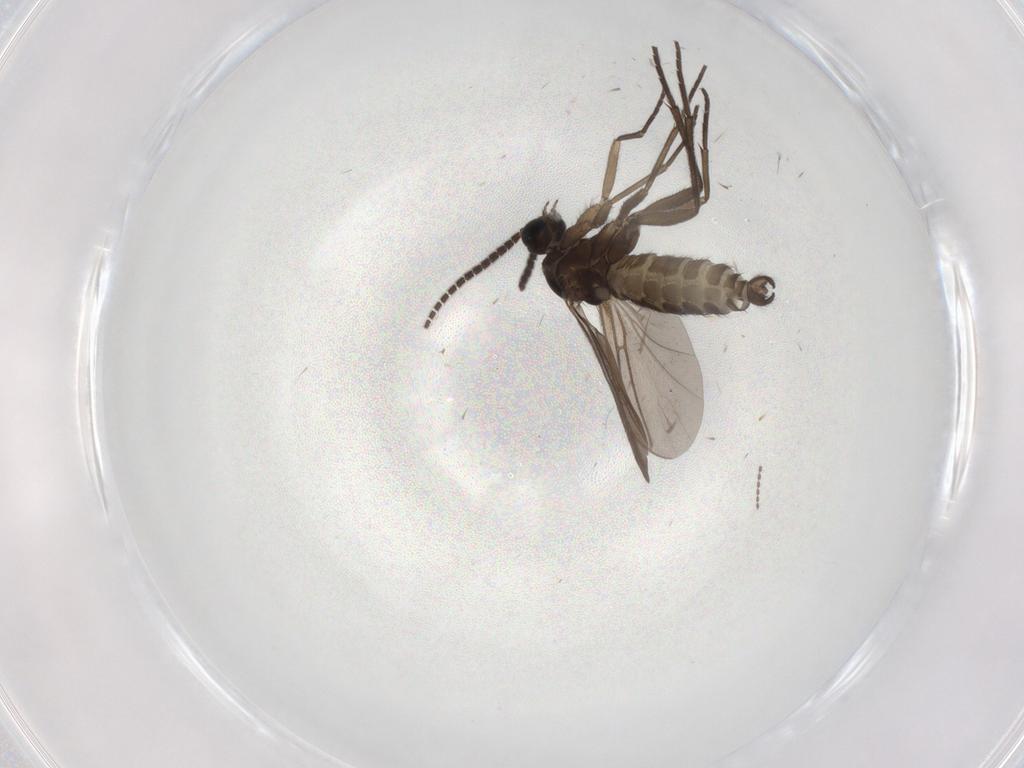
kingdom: Animalia
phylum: Arthropoda
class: Insecta
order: Diptera
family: Sciaridae
